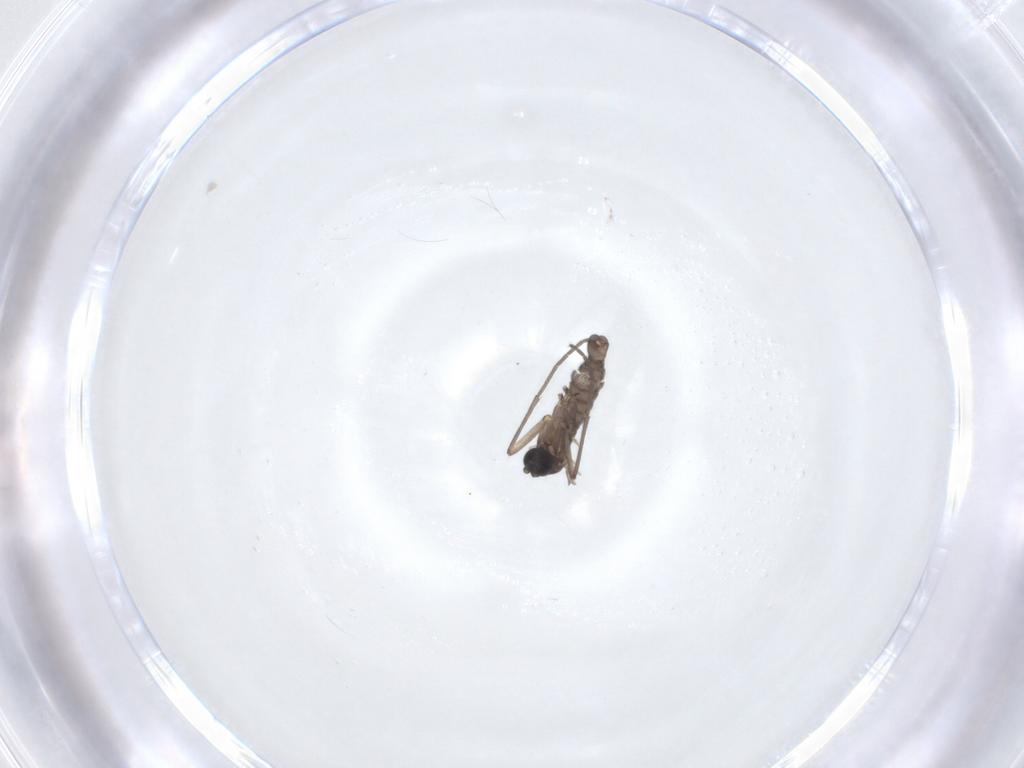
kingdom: Animalia
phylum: Arthropoda
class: Insecta
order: Diptera
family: Sciaridae
